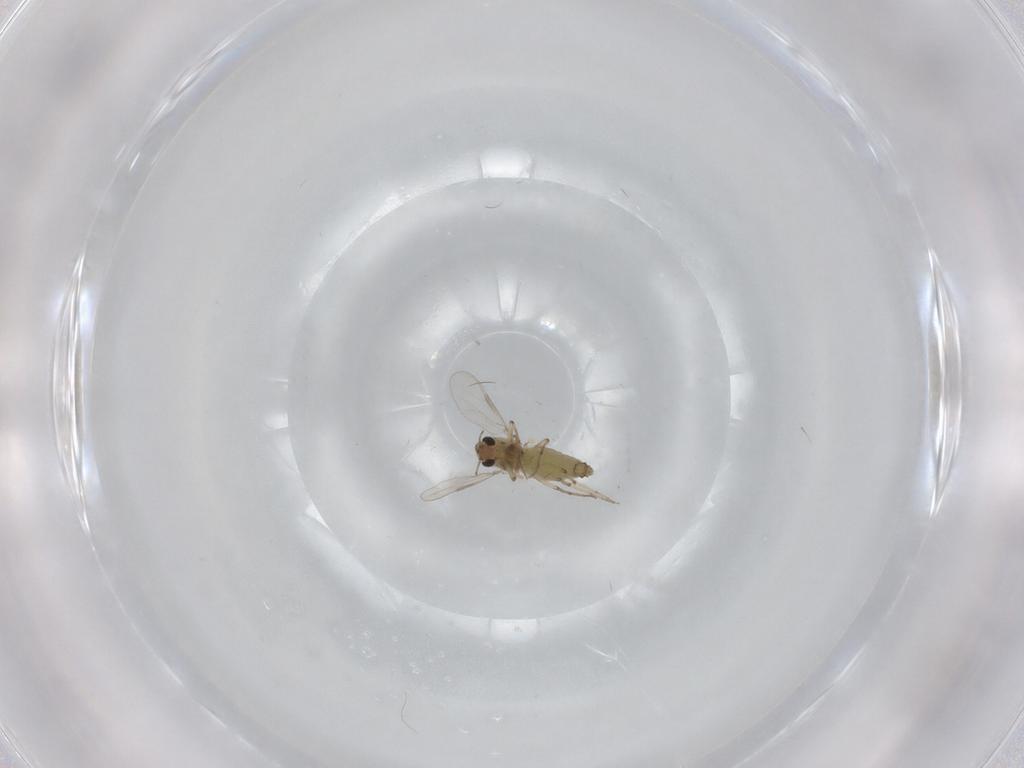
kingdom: Animalia
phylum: Arthropoda
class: Insecta
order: Diptera
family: Chironomidae
